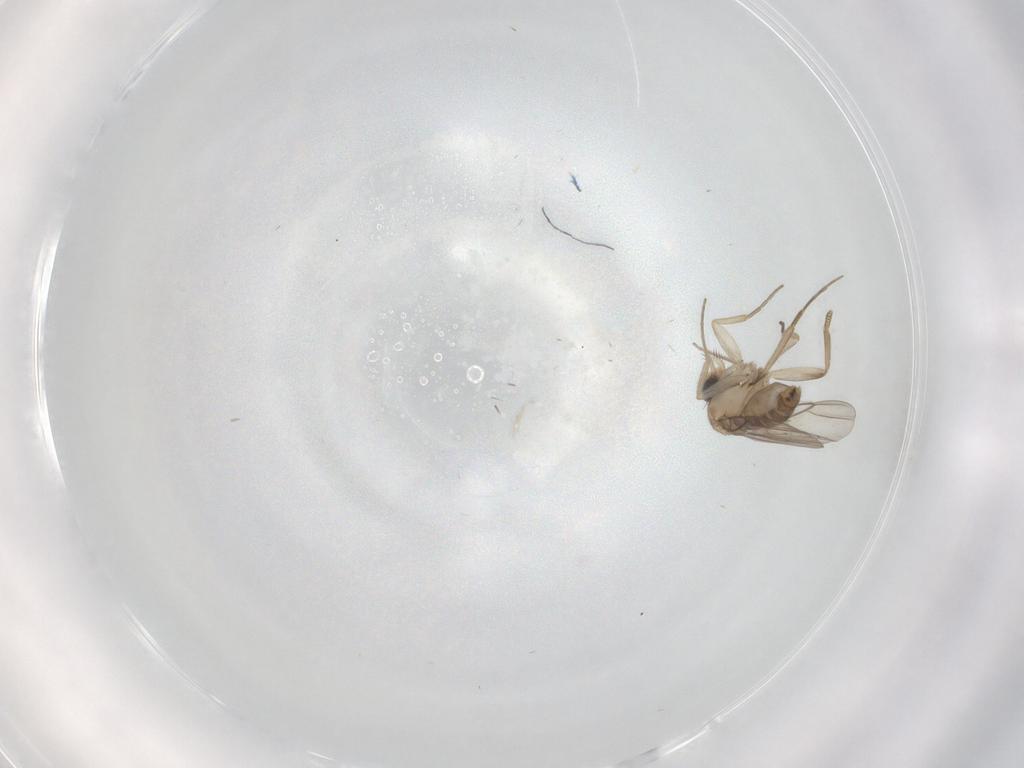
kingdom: Animalia
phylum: Arthropoda
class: Insecta
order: Diptera
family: Phoridae
